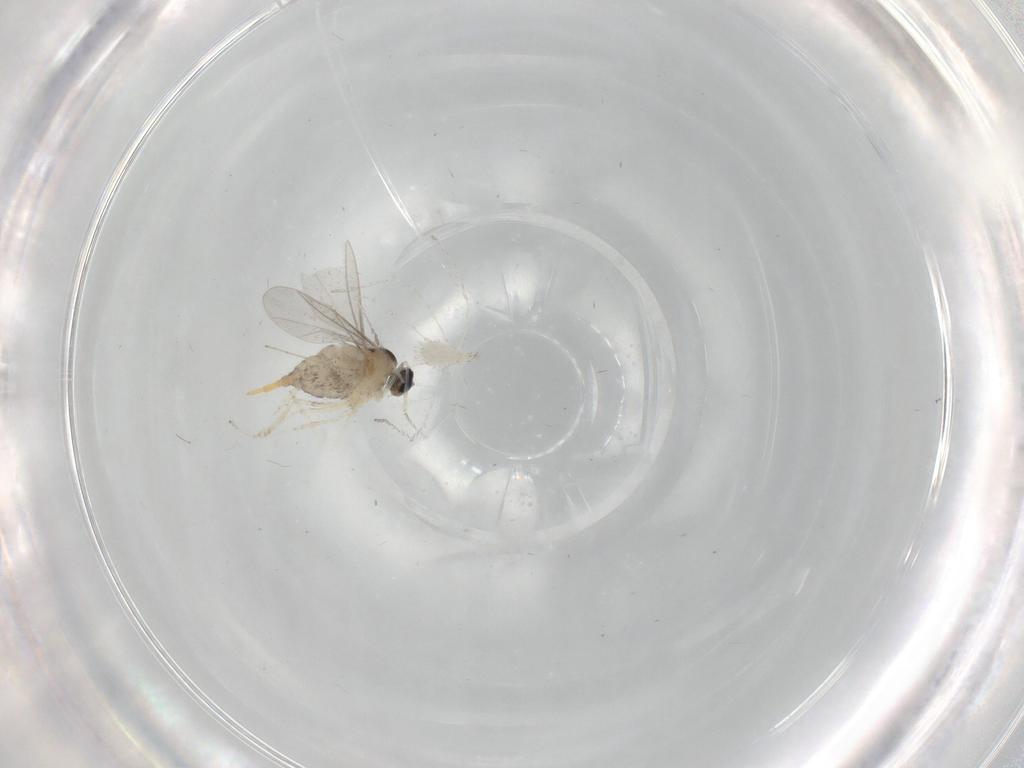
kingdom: Animalia
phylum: Arthropoda
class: Insecta
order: Diptera
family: Cecidomyiidae
